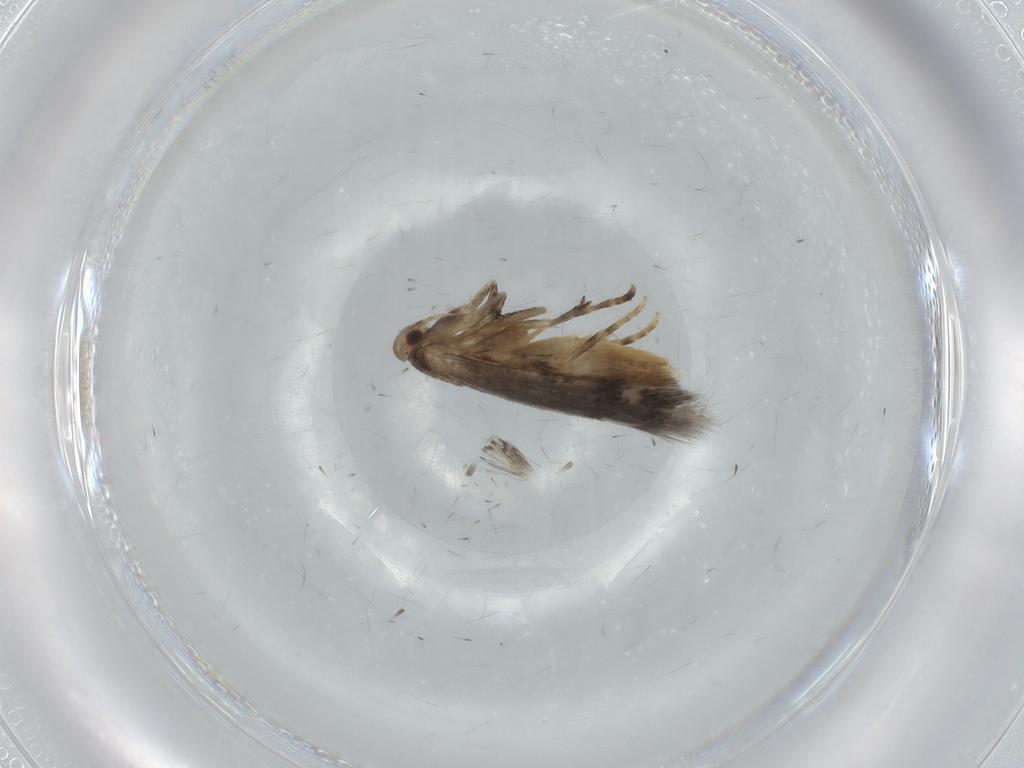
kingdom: Animalia
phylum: Arthropoda
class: Insecta
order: Lepidoptera
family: Elachistidae
